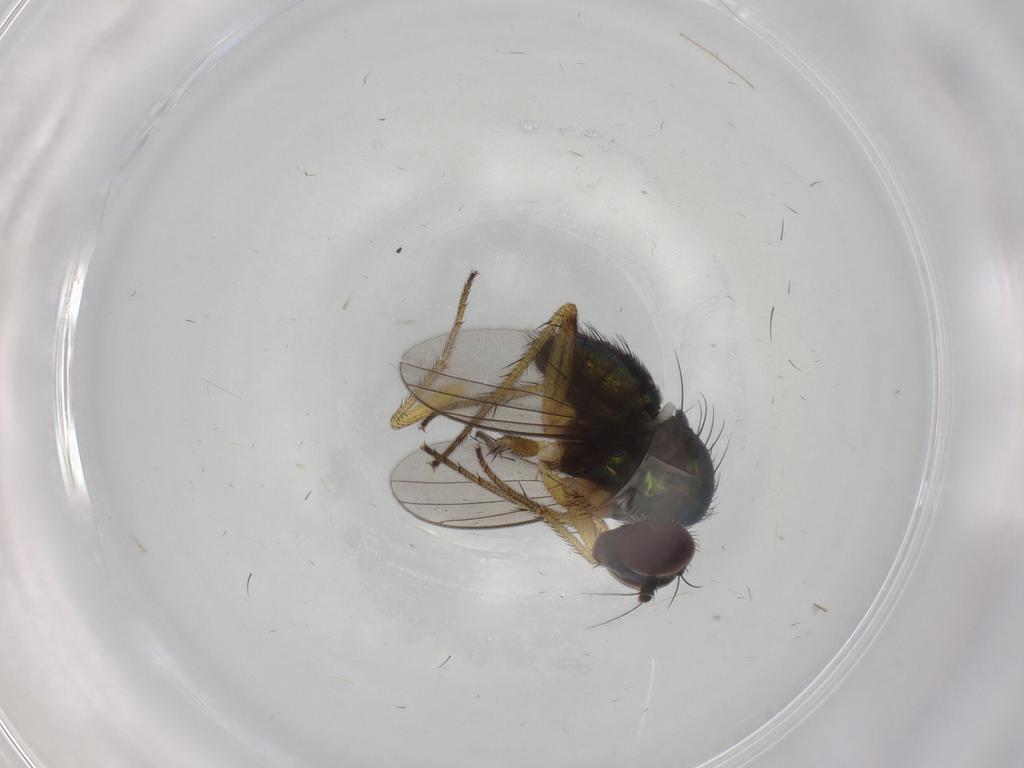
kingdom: Animalia
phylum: Arthropoda
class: Insecta
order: Diptera
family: Dolichopodidae
